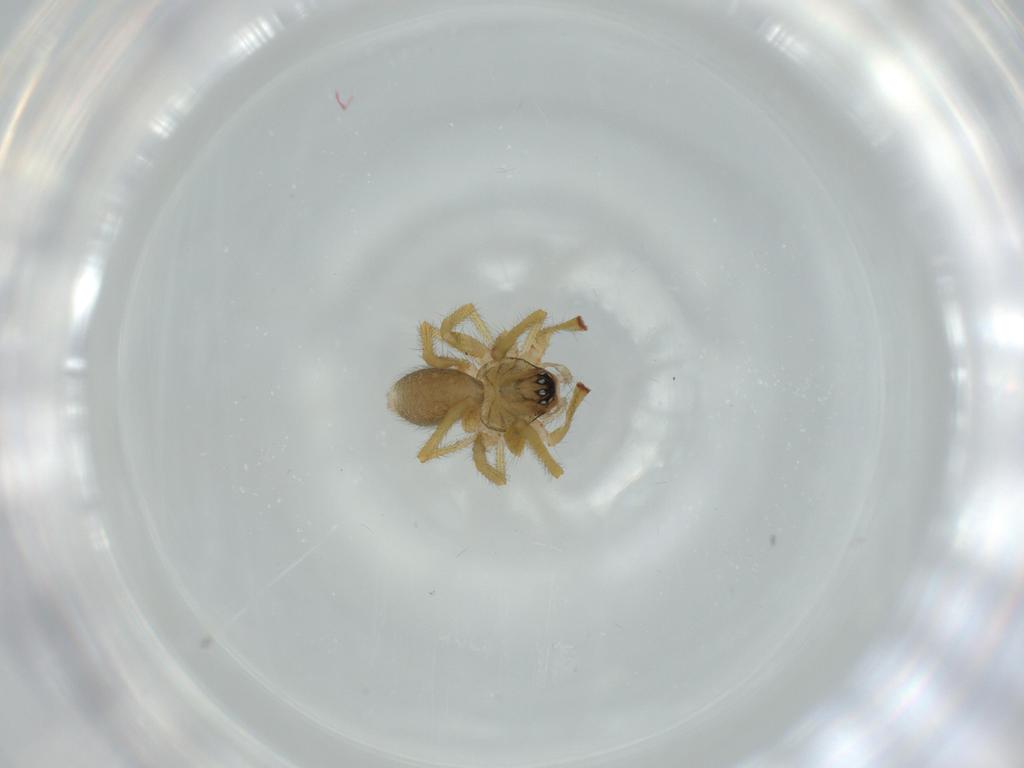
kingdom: Animalia
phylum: Arthropoda
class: Arachnida
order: Araneae
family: Linyphiidae
